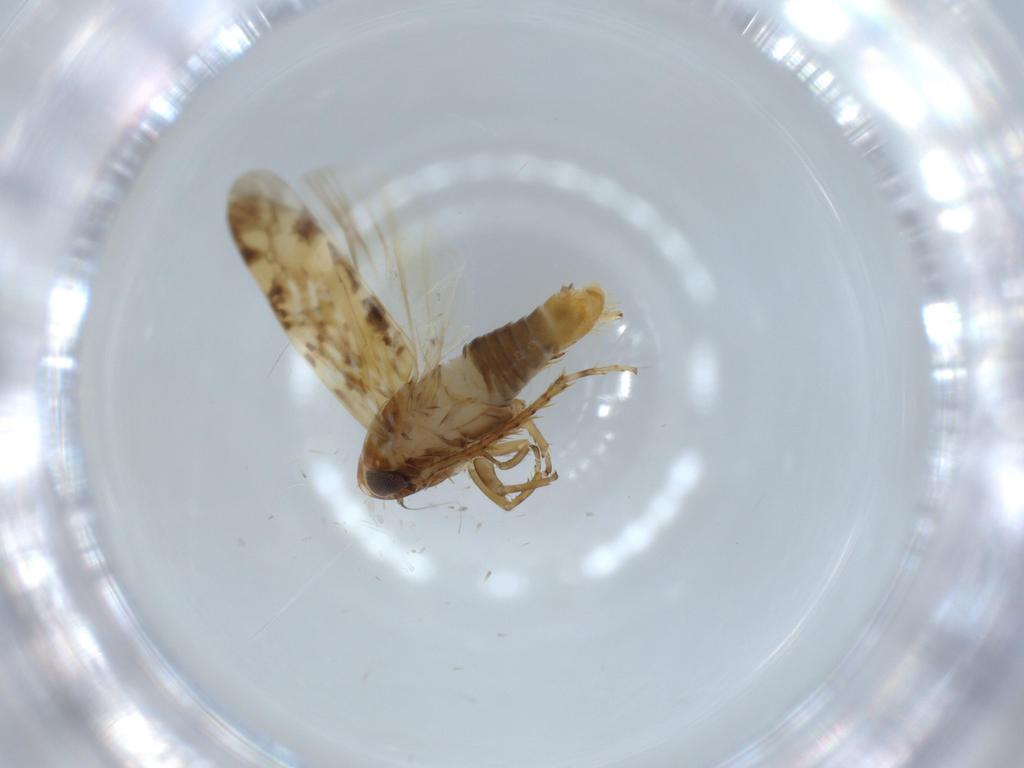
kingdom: Animalia
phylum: Arthropoda
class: Insecta
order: Hemiptera
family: Cicadellidae
